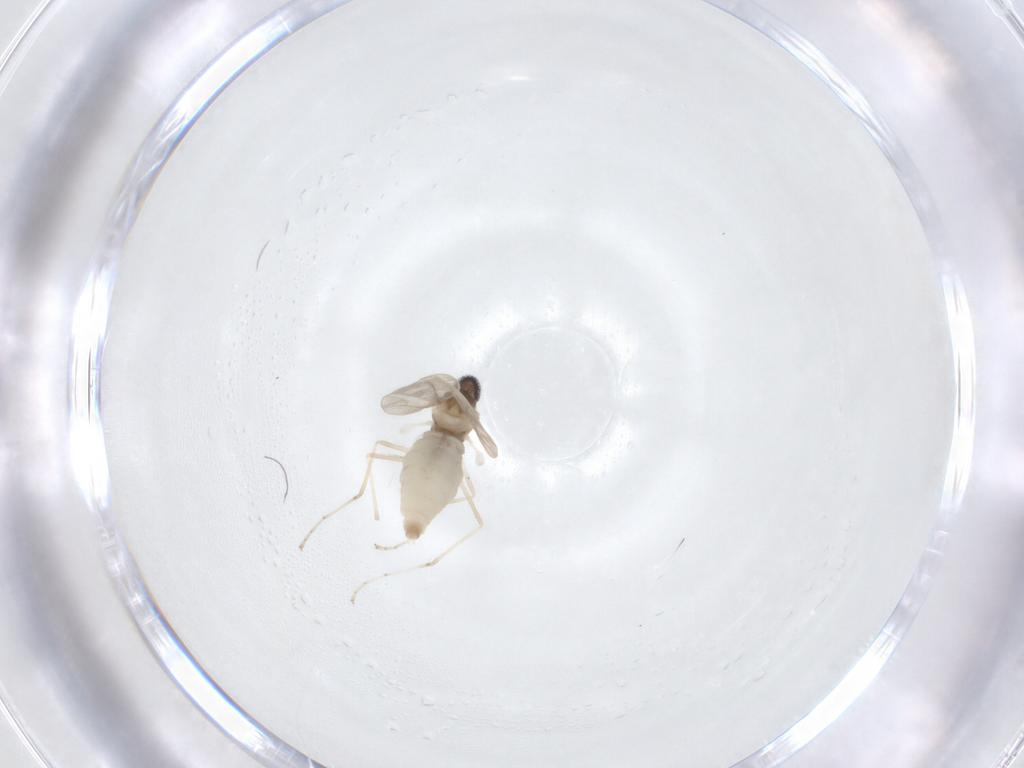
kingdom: Animalia
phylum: Arthropoda
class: Insecta
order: Diptera
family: Ceratopogonidae
